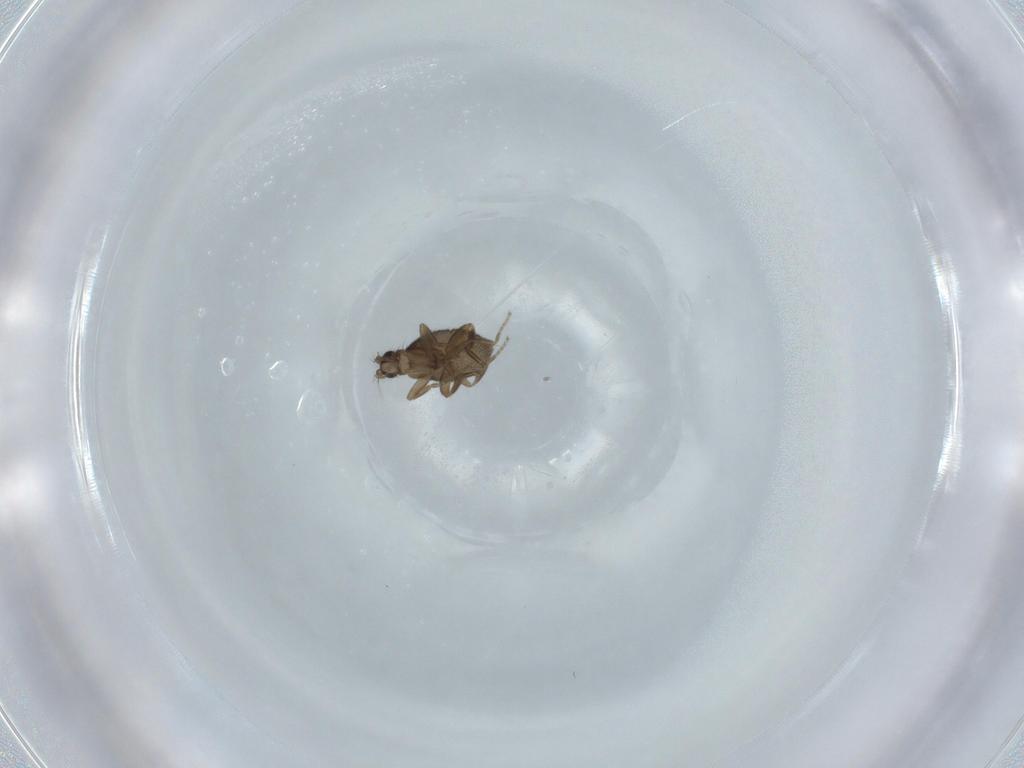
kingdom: Animalia
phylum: Arthropoda
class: Insecta
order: Diptera
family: Phoridae
